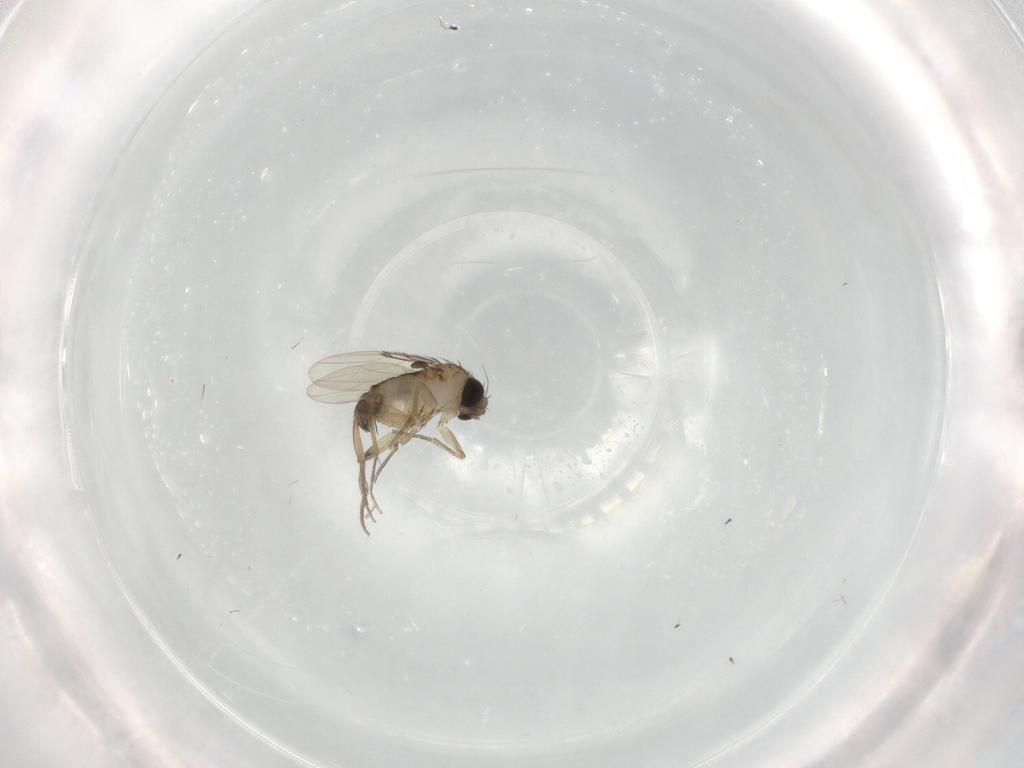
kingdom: Animalia
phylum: Arthropoda
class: Insecta
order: Diptera
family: Phoridae
